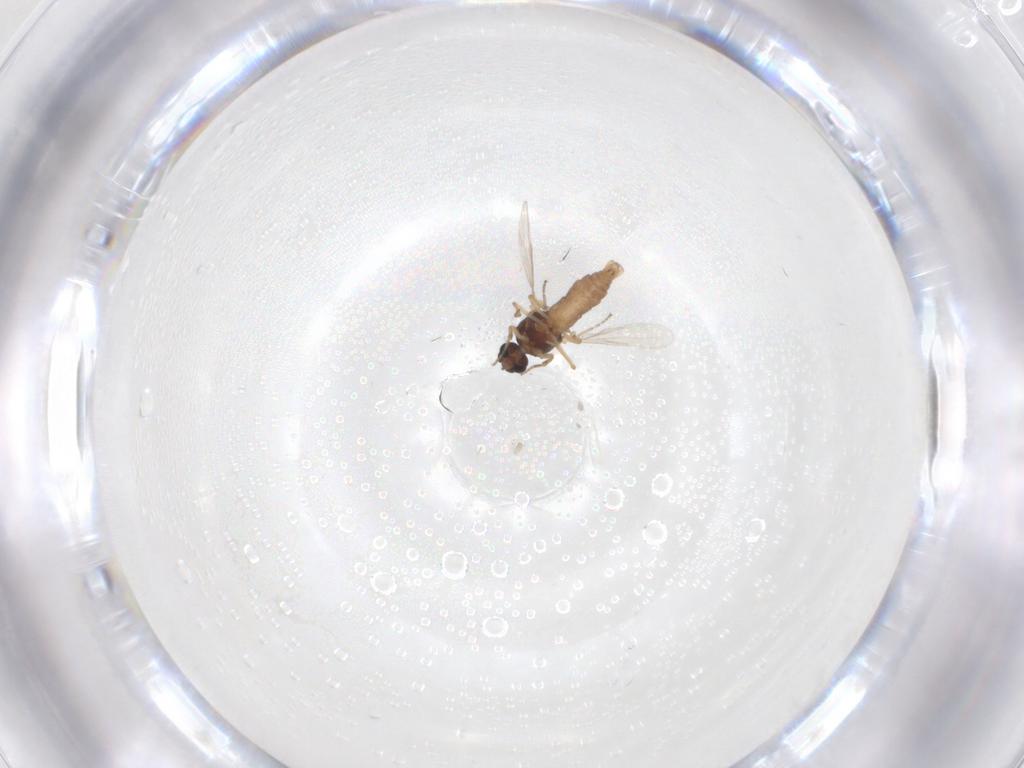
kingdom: Animalia
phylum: Arthropoda
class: Insecta
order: Diptera
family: Ceratopogonidae
